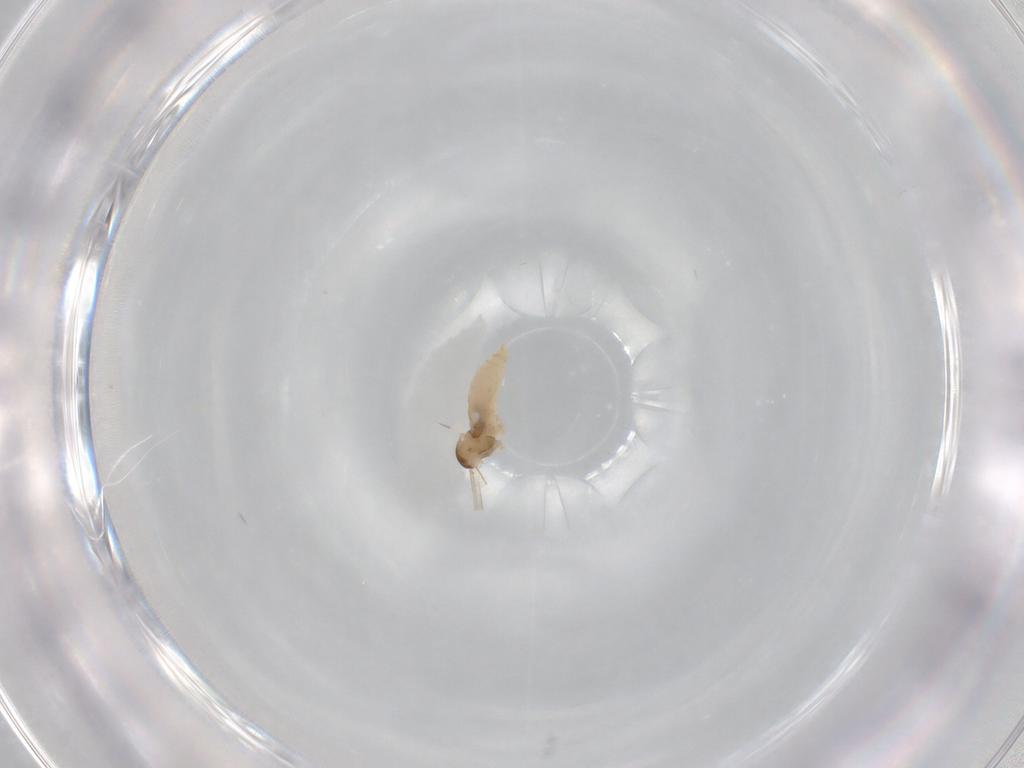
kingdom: Animalia
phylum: Arthropoda
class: Insecta
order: Diptera
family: Cecidomyiidae
